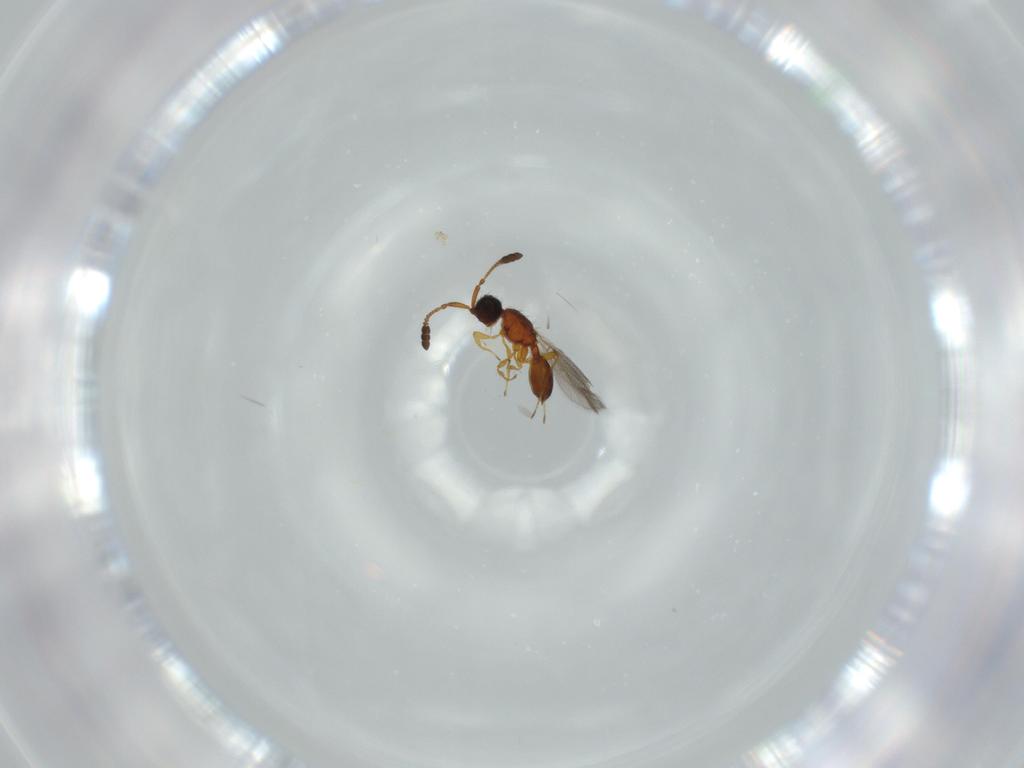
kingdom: Animalia
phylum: Arthropoda
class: Insecta
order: Hymenoptera
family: Diapriidae
